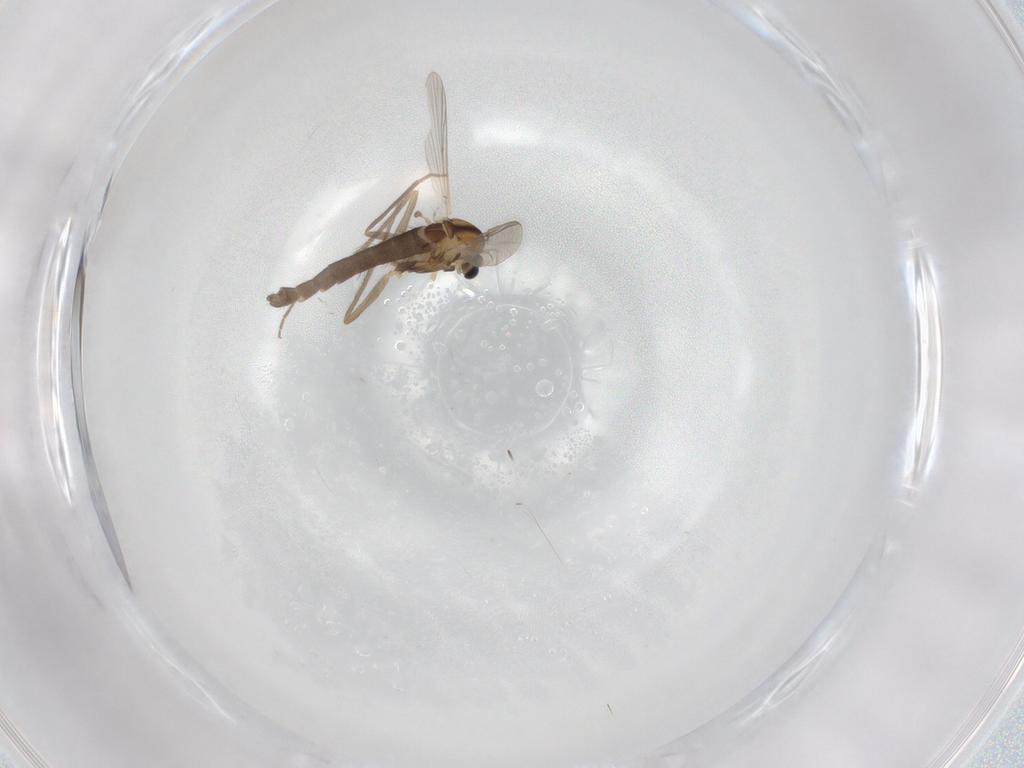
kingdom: Animalia
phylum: Arthropoda
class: Insecta
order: Diptera
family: Chironomidae
